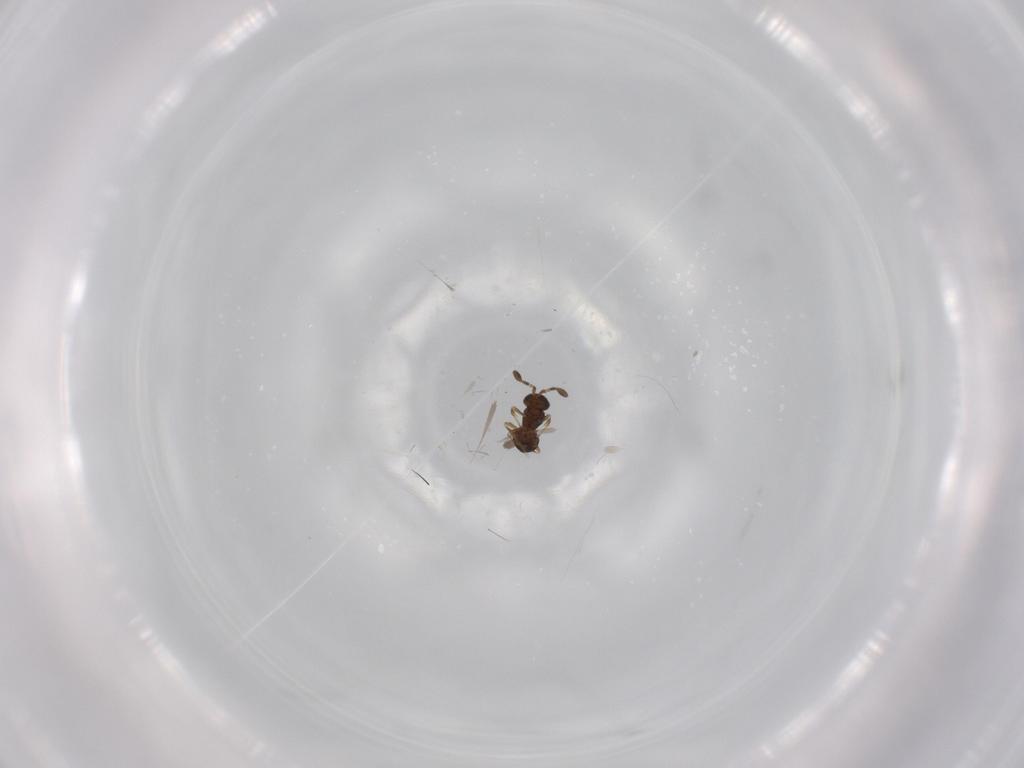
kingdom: Animalia
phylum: Arthropoda
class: Insecta
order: Hymenoptera
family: Scelionidae
